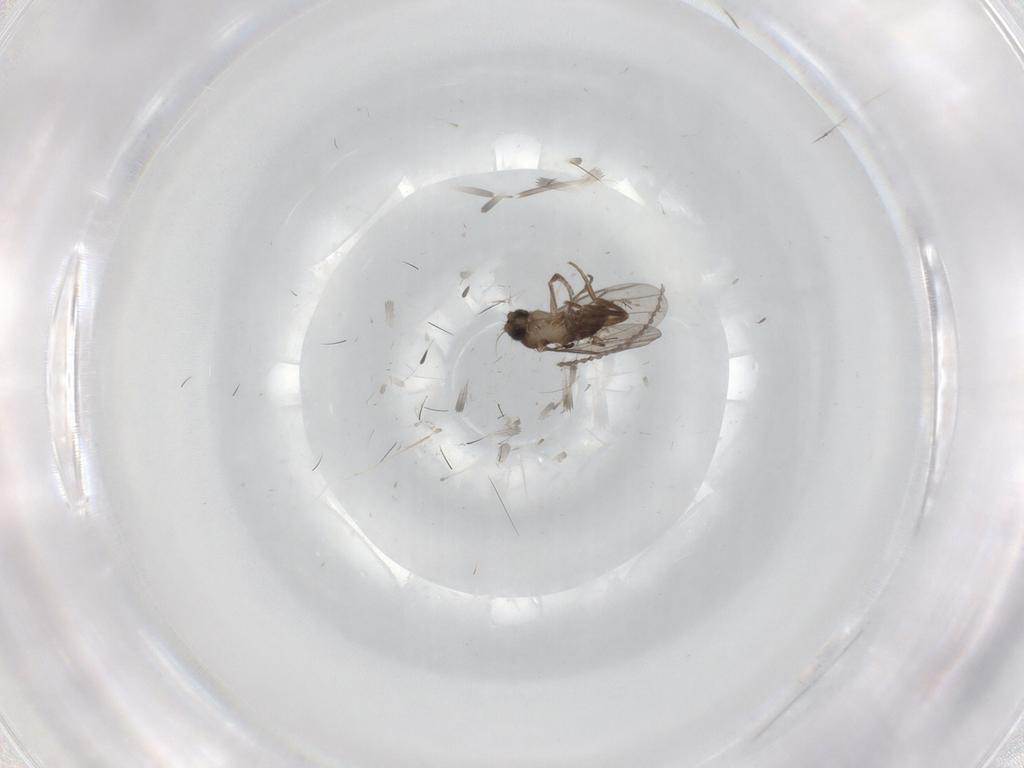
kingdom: Animalia
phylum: Arthropoda
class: Insecta
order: Diptera
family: Cecidomyiidae
